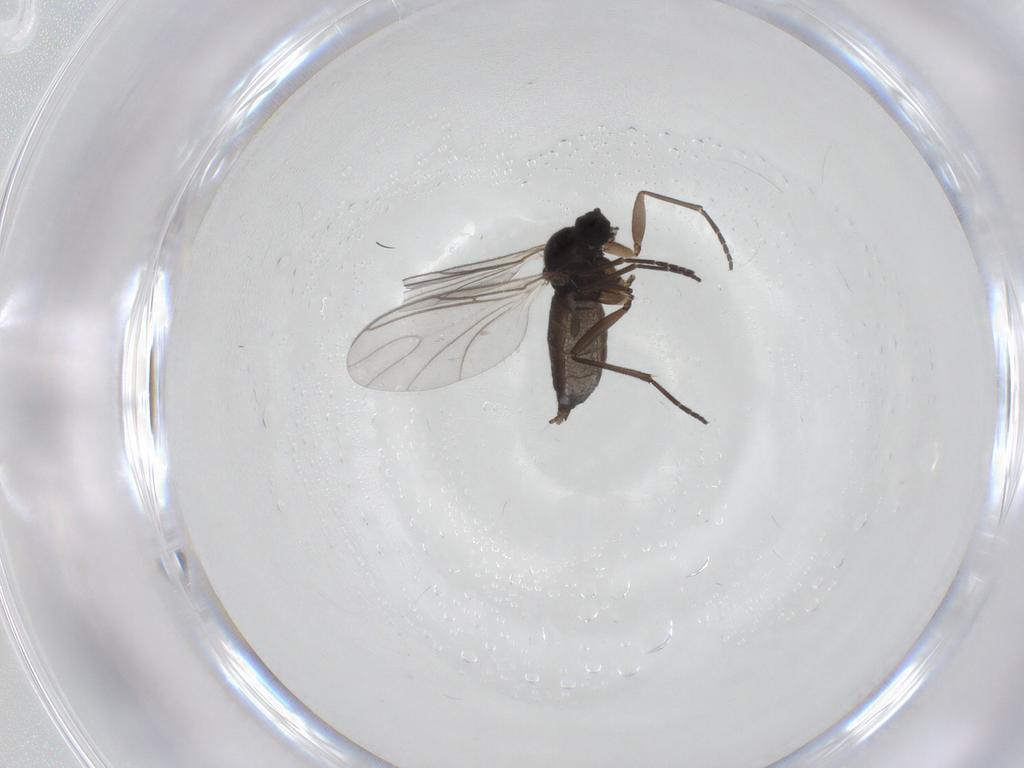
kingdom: Animalia
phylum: Arthropoda
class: Insecta
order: Diptera
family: Sciaridae
